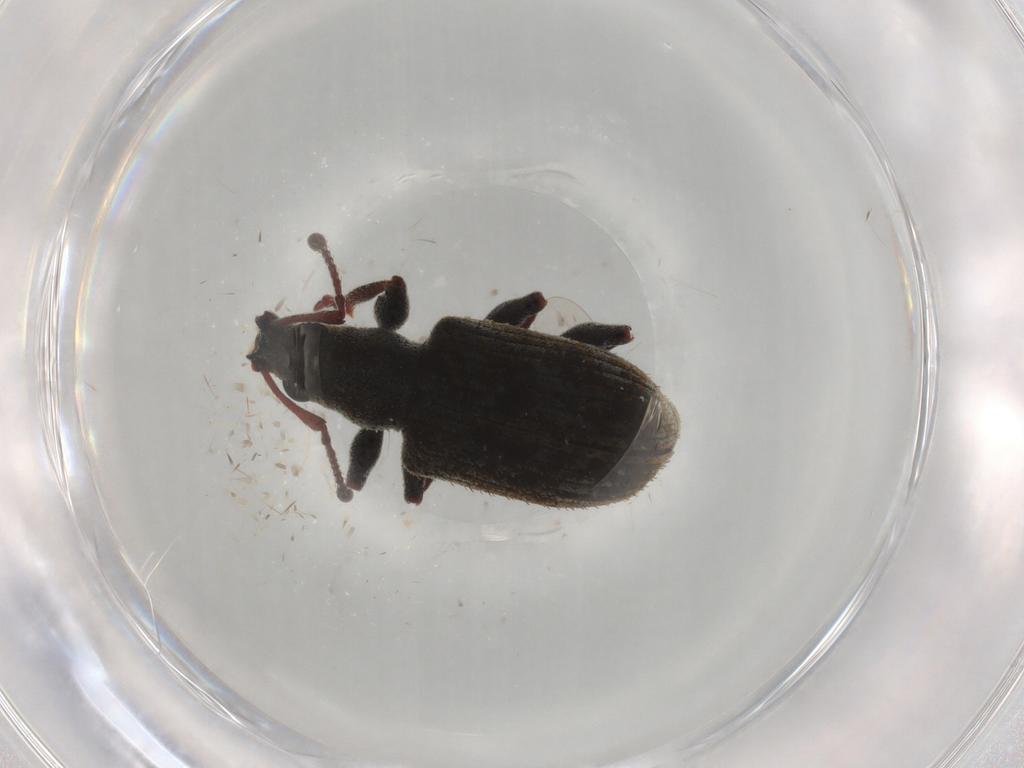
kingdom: Animalia
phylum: Arthropoda
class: Insecta
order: Coleoptera
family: Curculionidae
